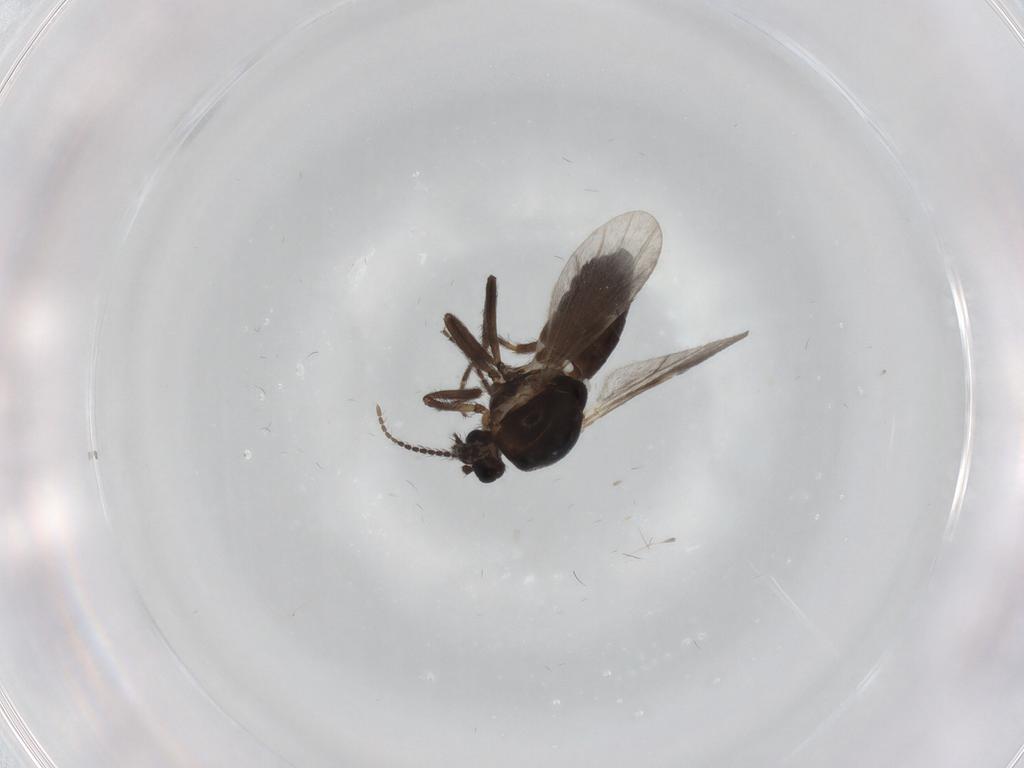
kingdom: Animalia
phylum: Arthropoda
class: Insecta
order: Diptera
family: Ceratopogonidae
